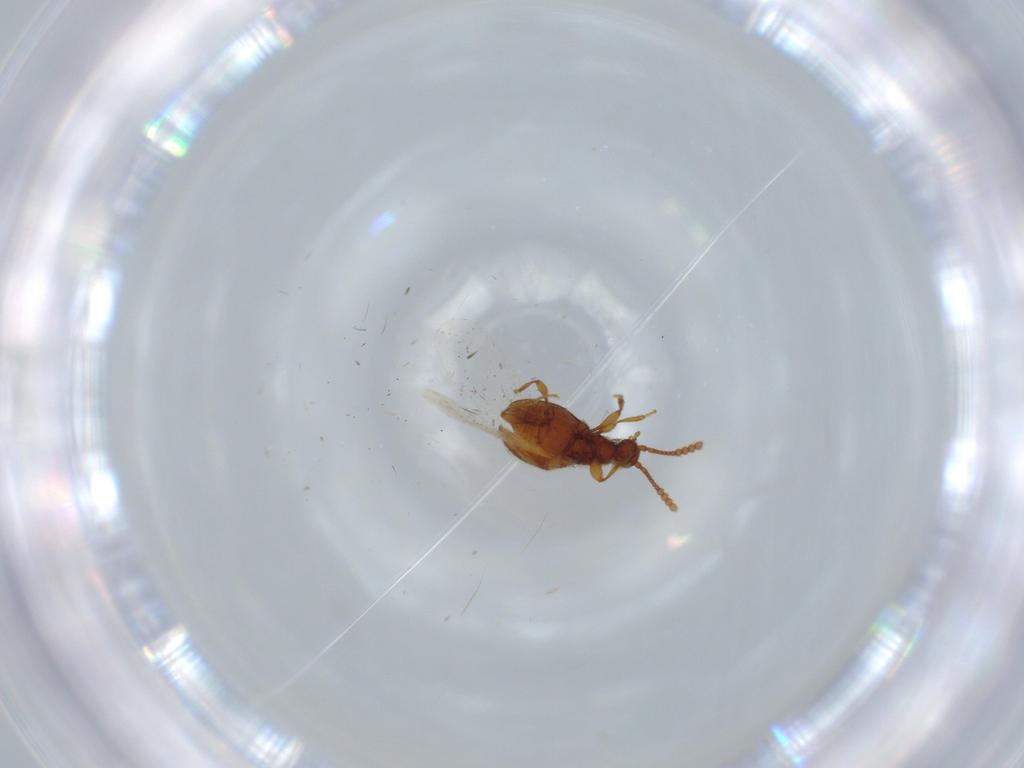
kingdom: Animalia
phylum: Arthropoda
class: Insecta
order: Coleoptera
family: Staphylinidae
